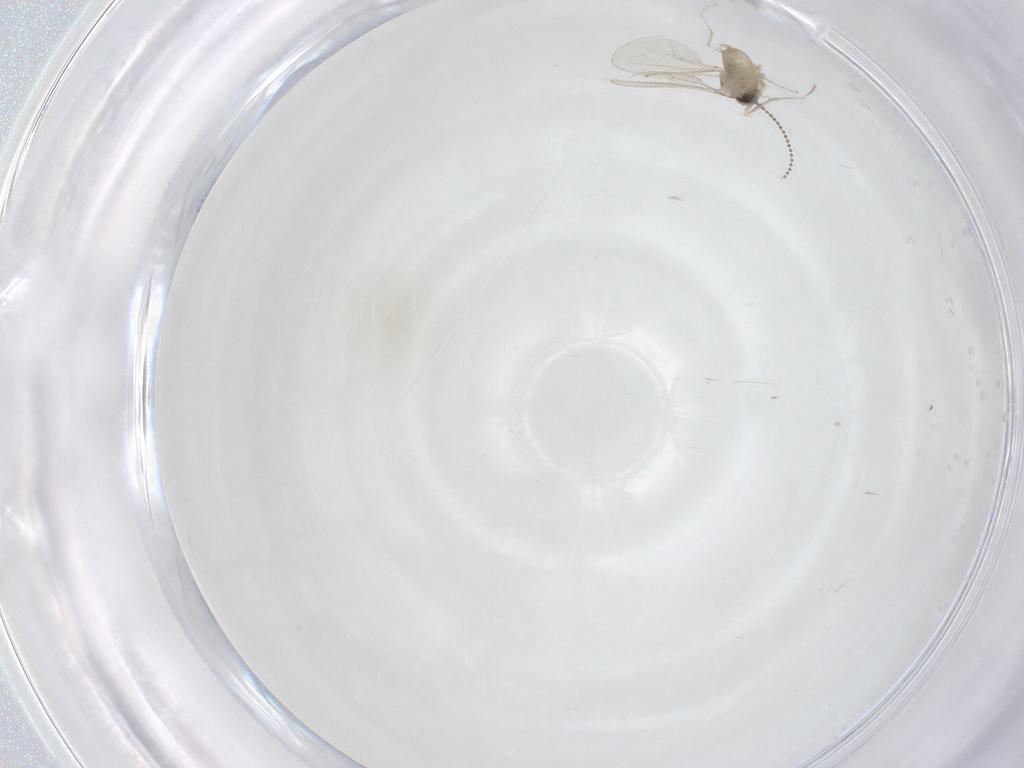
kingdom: Animalia
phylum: Arthropoda
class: Insecta
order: Diptera
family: Cecidomyiidae
